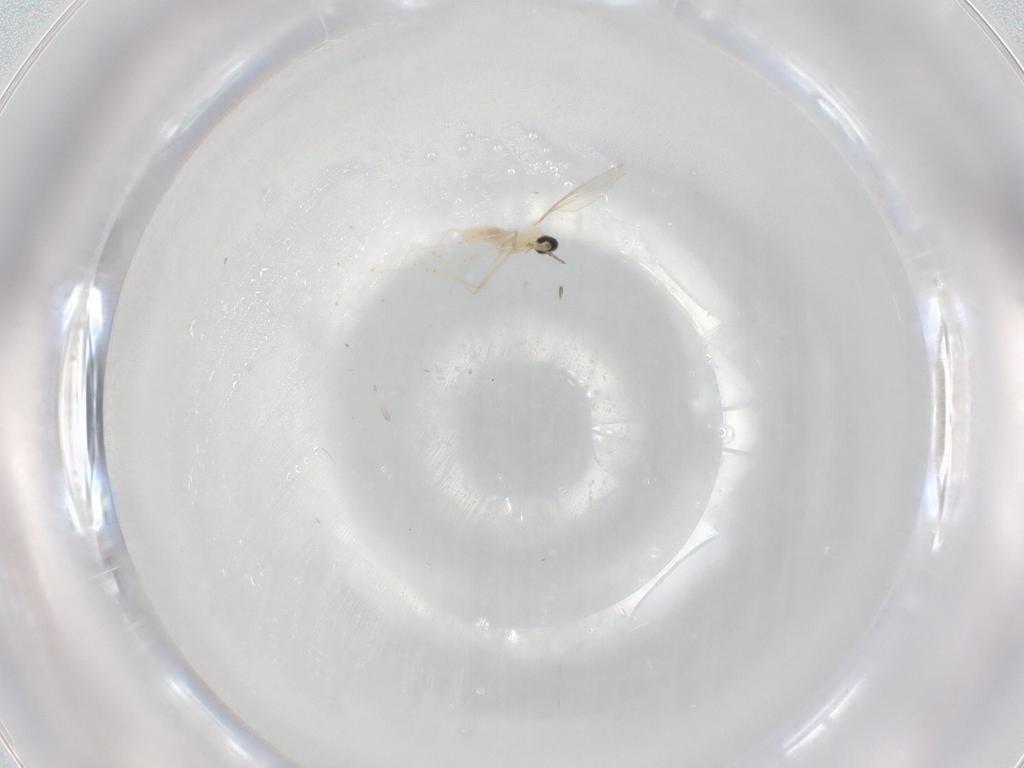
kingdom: Animalia
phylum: Arthropoda
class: Insecta
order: Diptera
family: Cecidomyiidae
